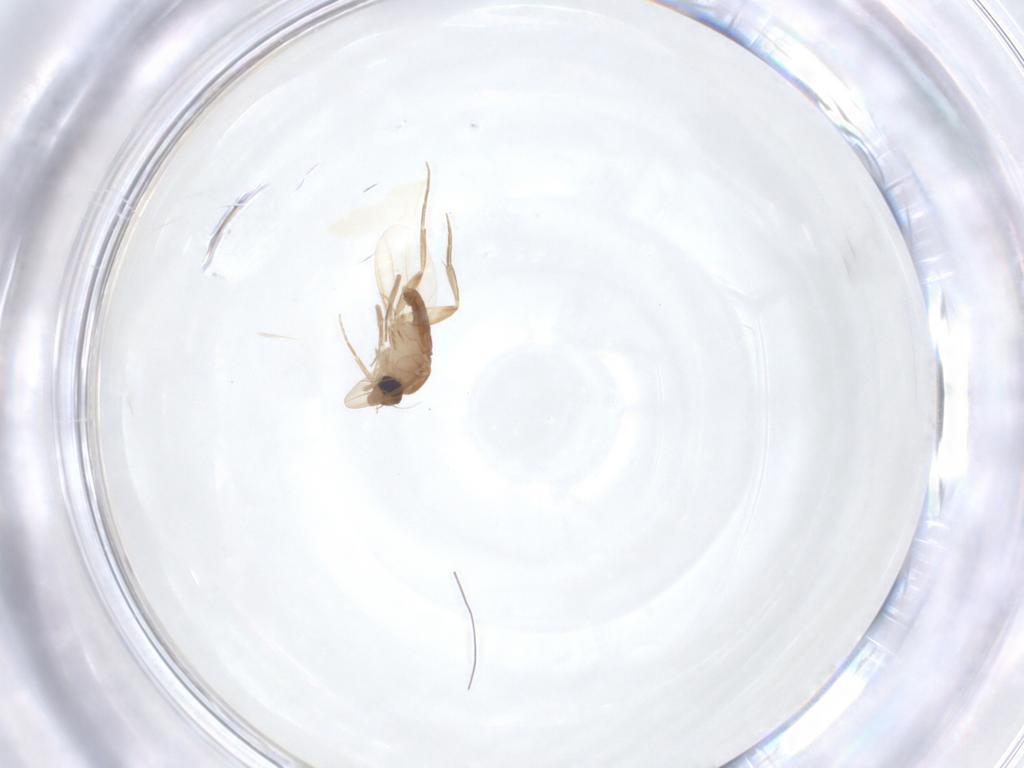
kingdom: Animalia
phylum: Arthropoda
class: Insecta
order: Diptera
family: Phoridae
